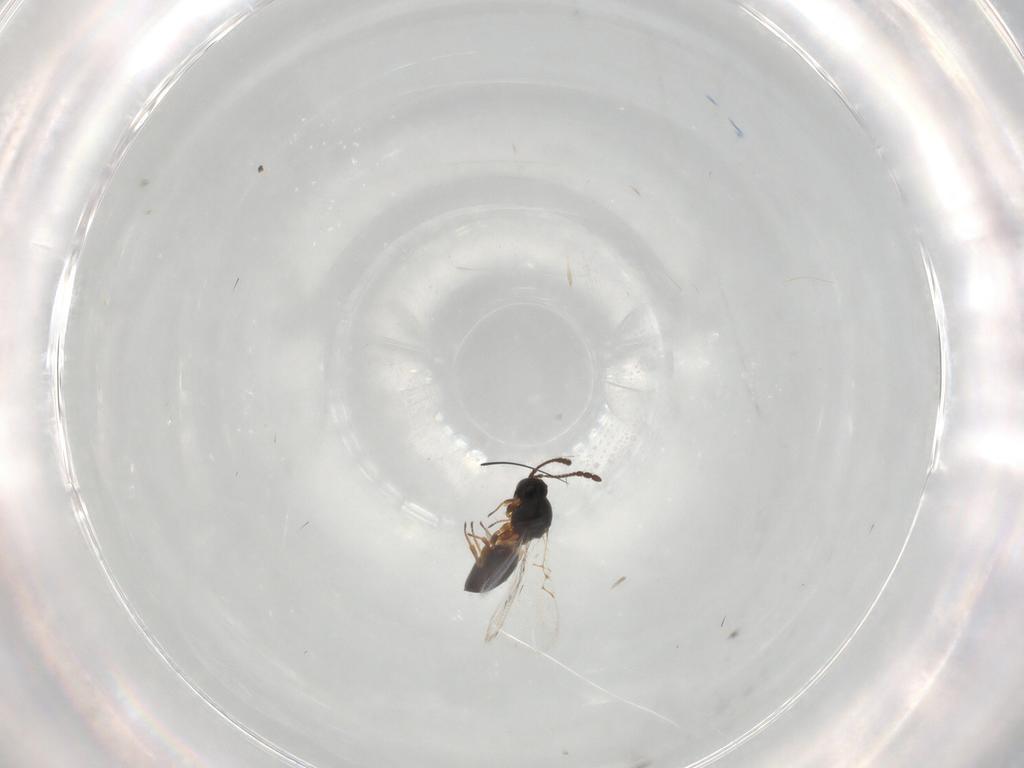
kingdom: Animalia
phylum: Arthropoda
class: Insecta
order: Hymenoptera
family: Figitidae
